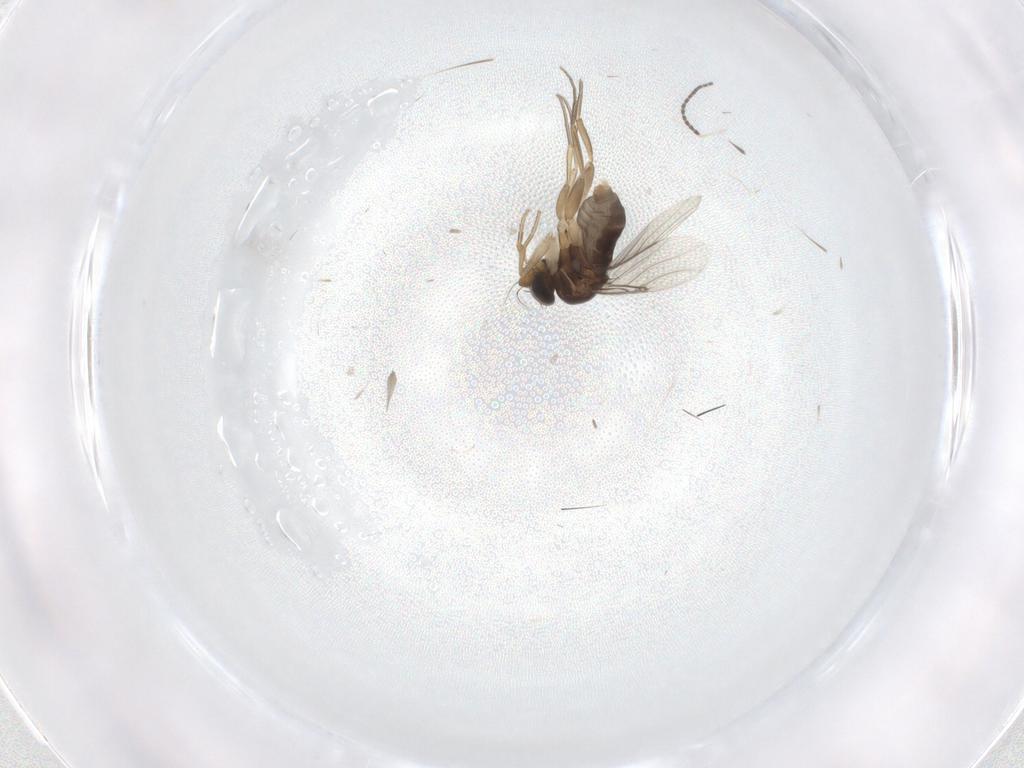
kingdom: Animalia
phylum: Arthropoda
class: Insecta
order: Diptera
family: Phoridae
